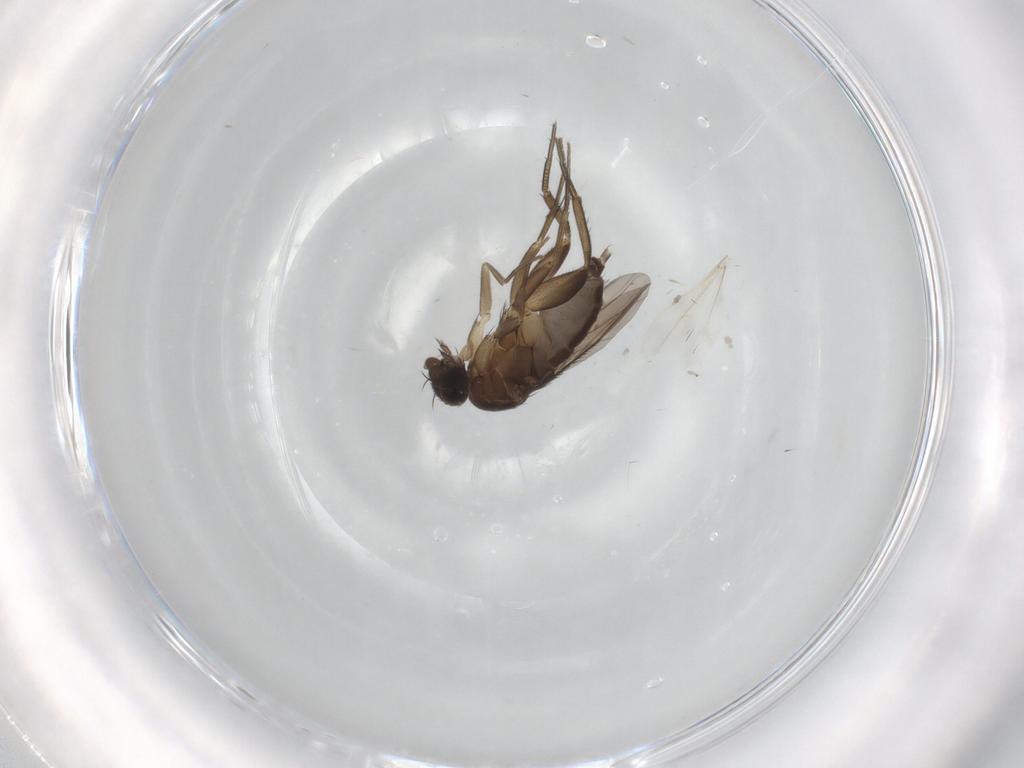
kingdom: Animalia
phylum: Arthropoda
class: Insecta
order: Diptera
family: Phoridae
